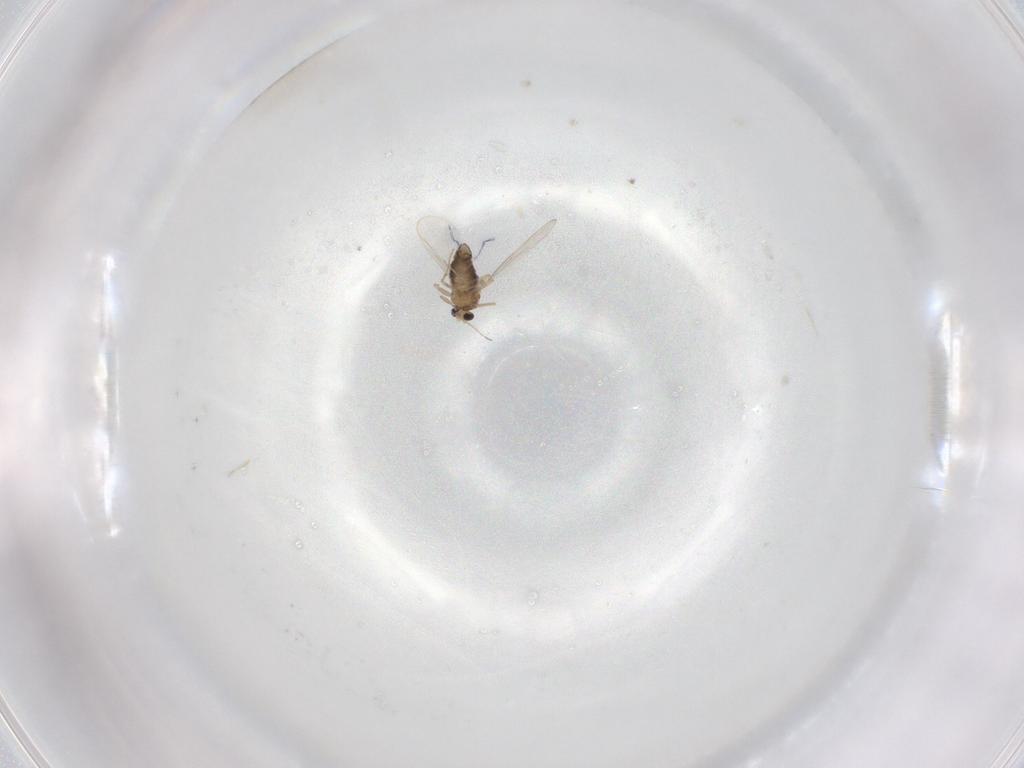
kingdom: Animalia
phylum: Arthropoda
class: Insecta
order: Diptera
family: Chironomidae
